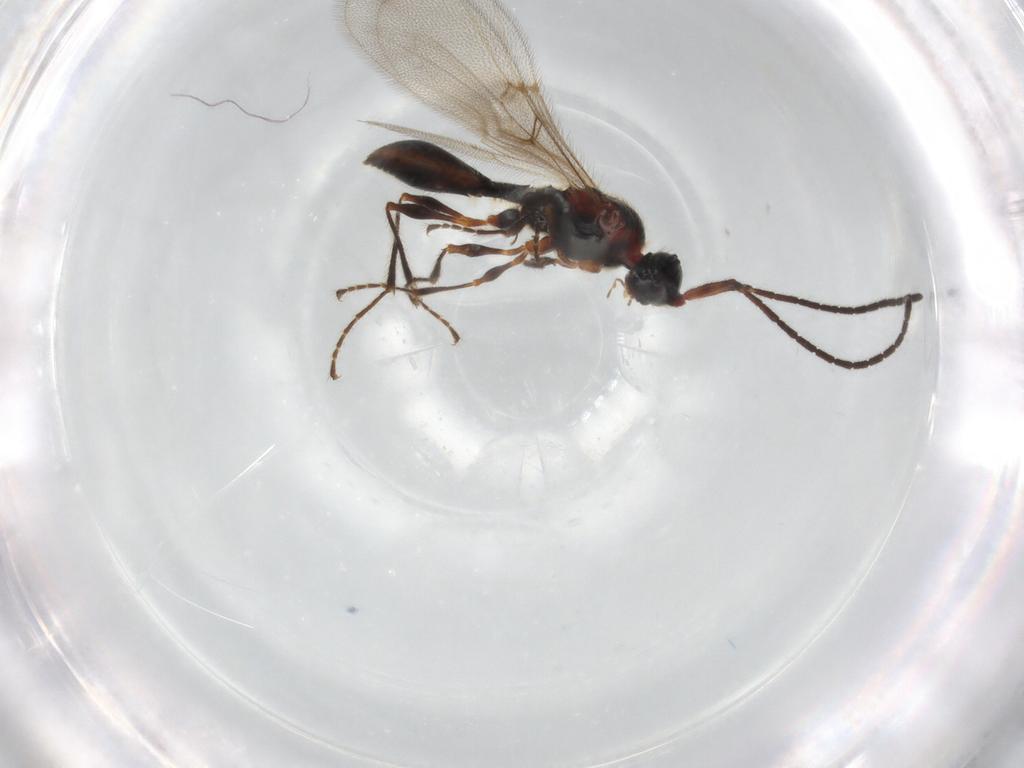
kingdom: Animalia
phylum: Arthropoda
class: Insecta
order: Hymenoptera
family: Diapriidae
